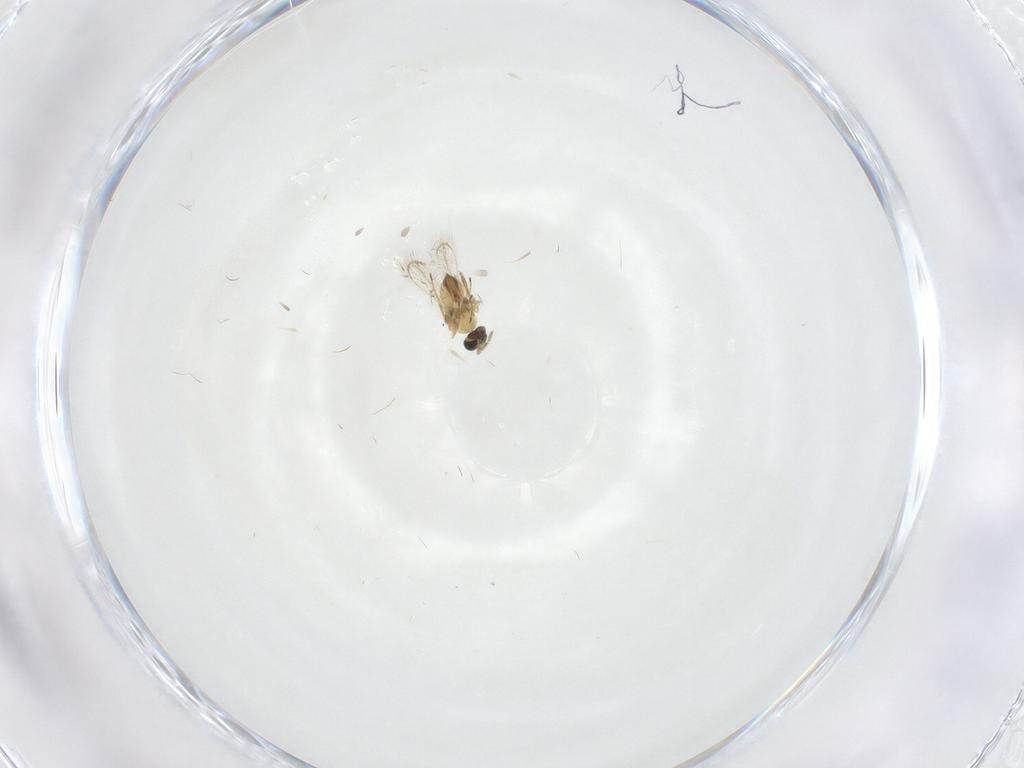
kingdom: Animalia
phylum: Arthropoda
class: Insecta
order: Hymenoptera
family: Trichogrammatidae
